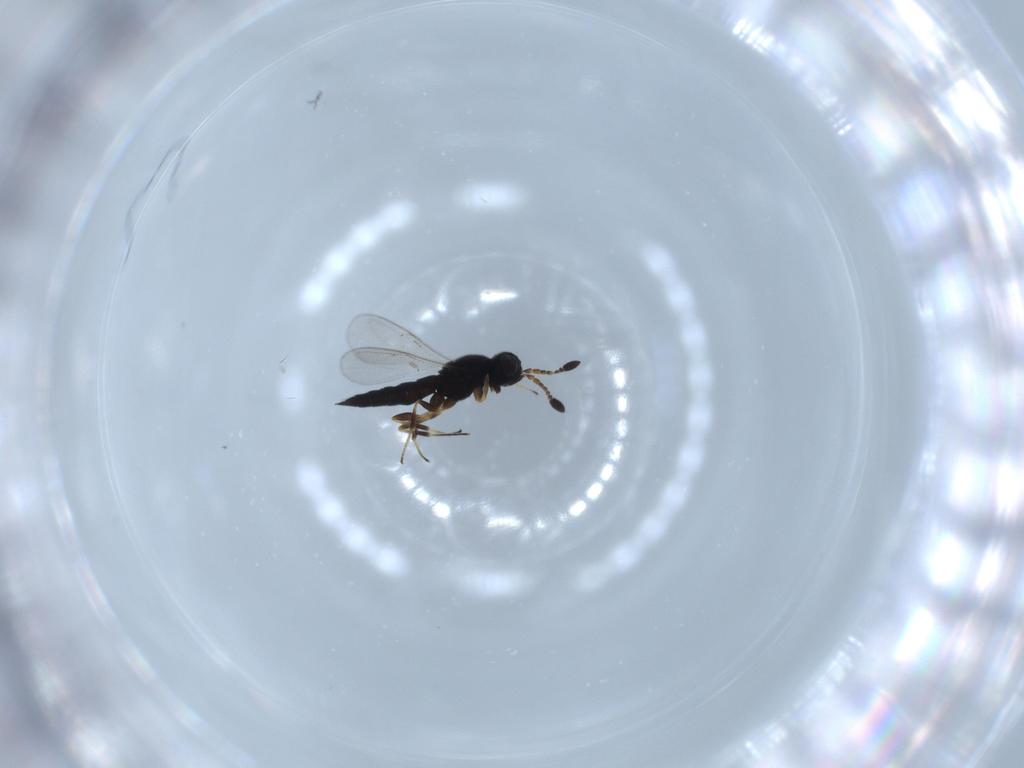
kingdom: Animalia
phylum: Arthropoda
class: Insecta
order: Hymenoptera
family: Scelionidae
